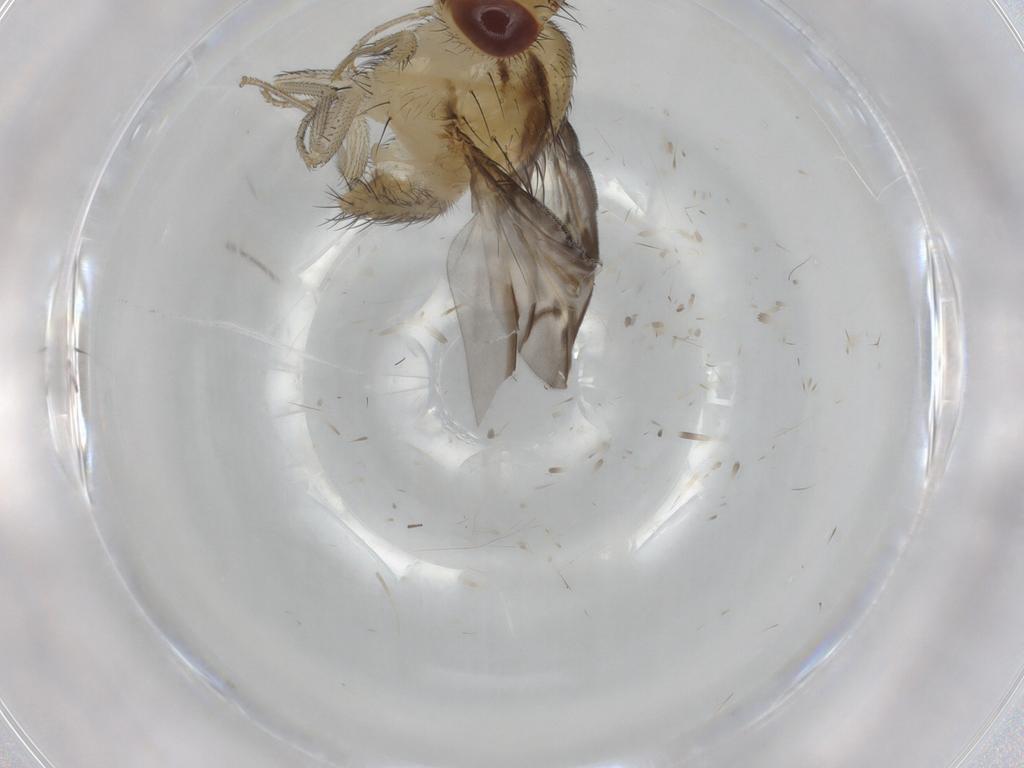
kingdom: Animalia
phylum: Arthropoda
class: Insecta
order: Diptera
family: Ceratopogonidae
